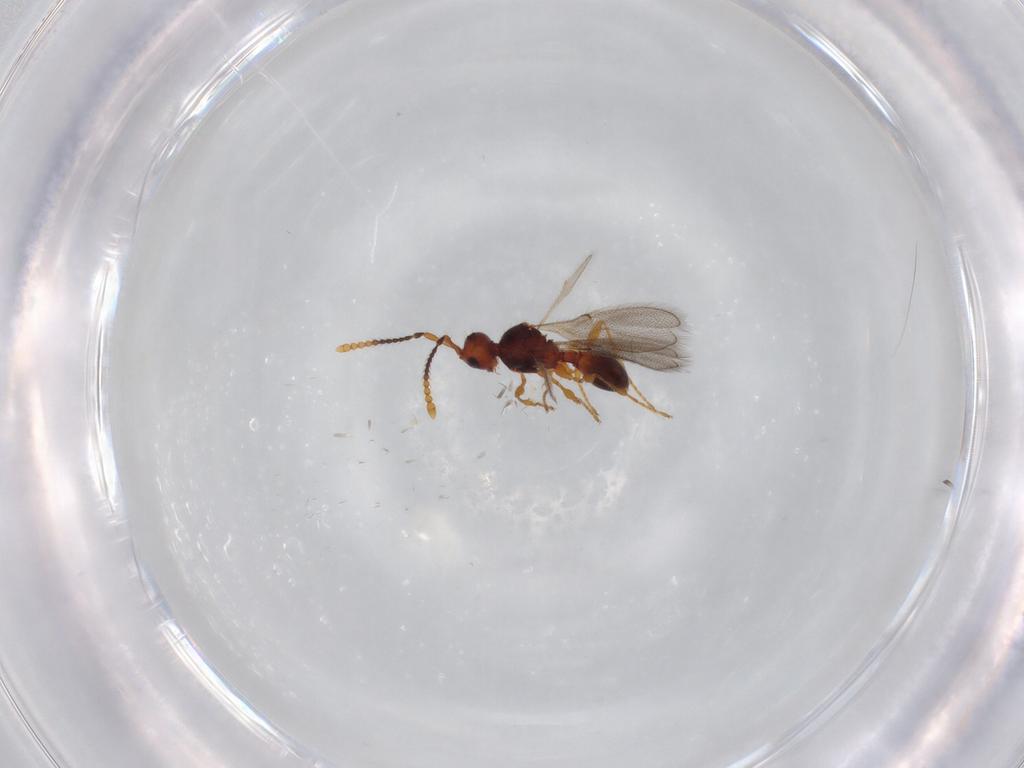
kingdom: Animalia
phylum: Arthropoda
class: Insecta
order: Hymenoptera
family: Diapriidae
